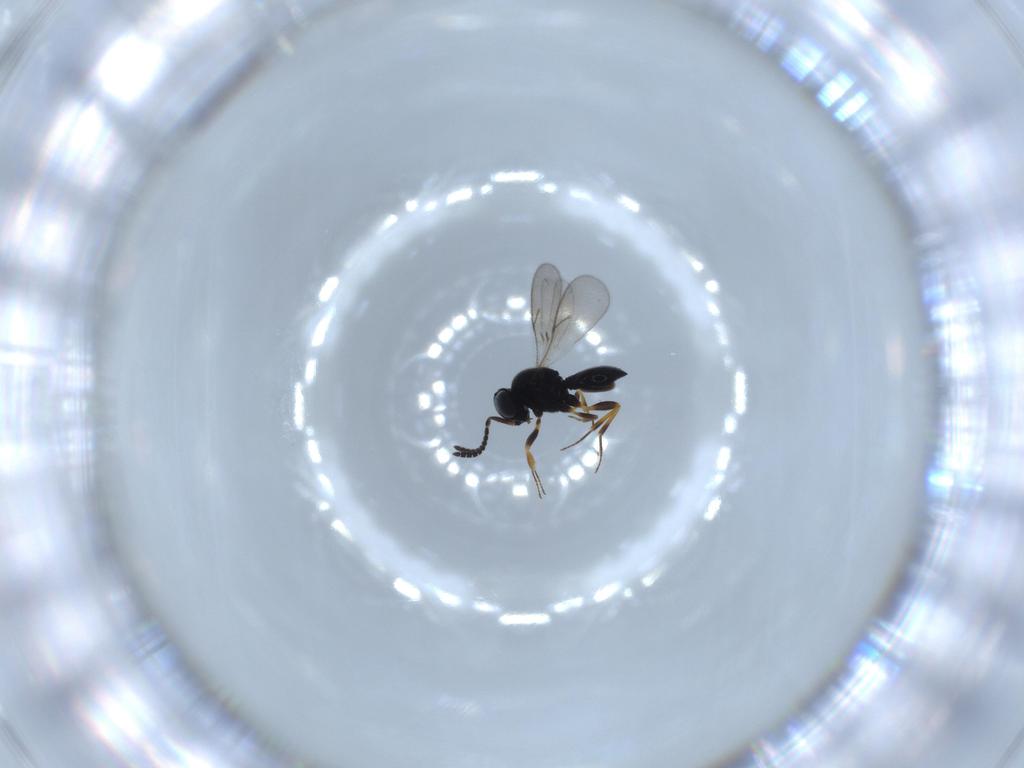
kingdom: Animalia
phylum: Arthropoda
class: Insecta
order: Hymenoptera
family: Scelionidae
